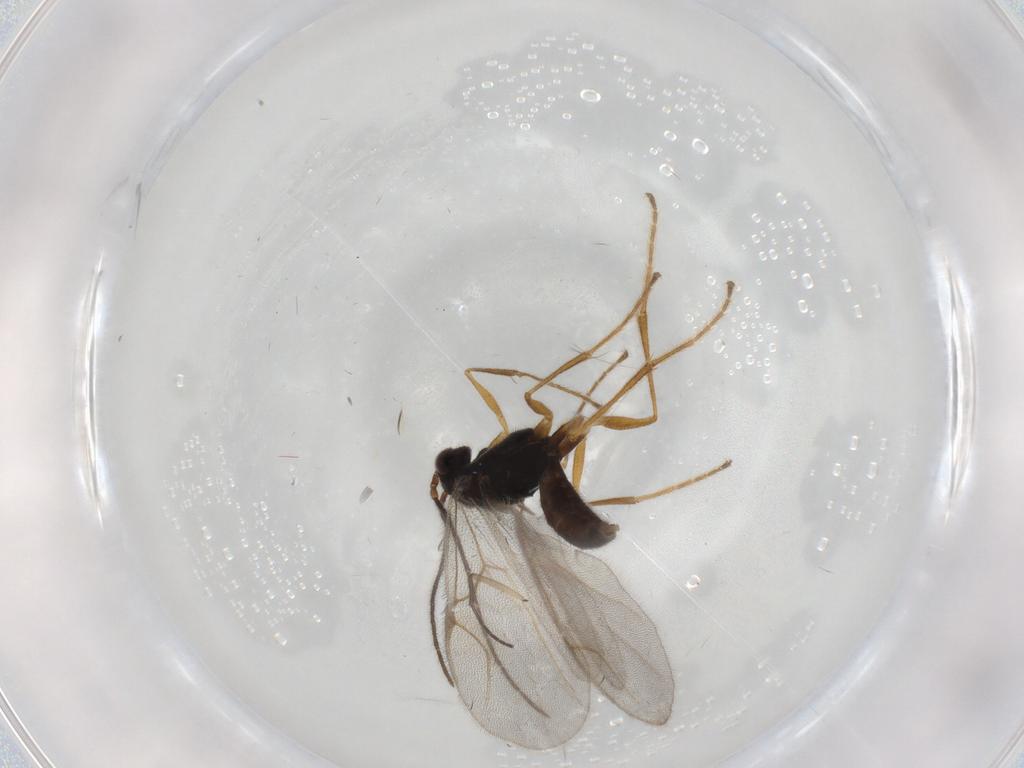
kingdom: Animalia
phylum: Arthropoda
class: Insecta
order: Hymenoptera
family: Dryinidae
